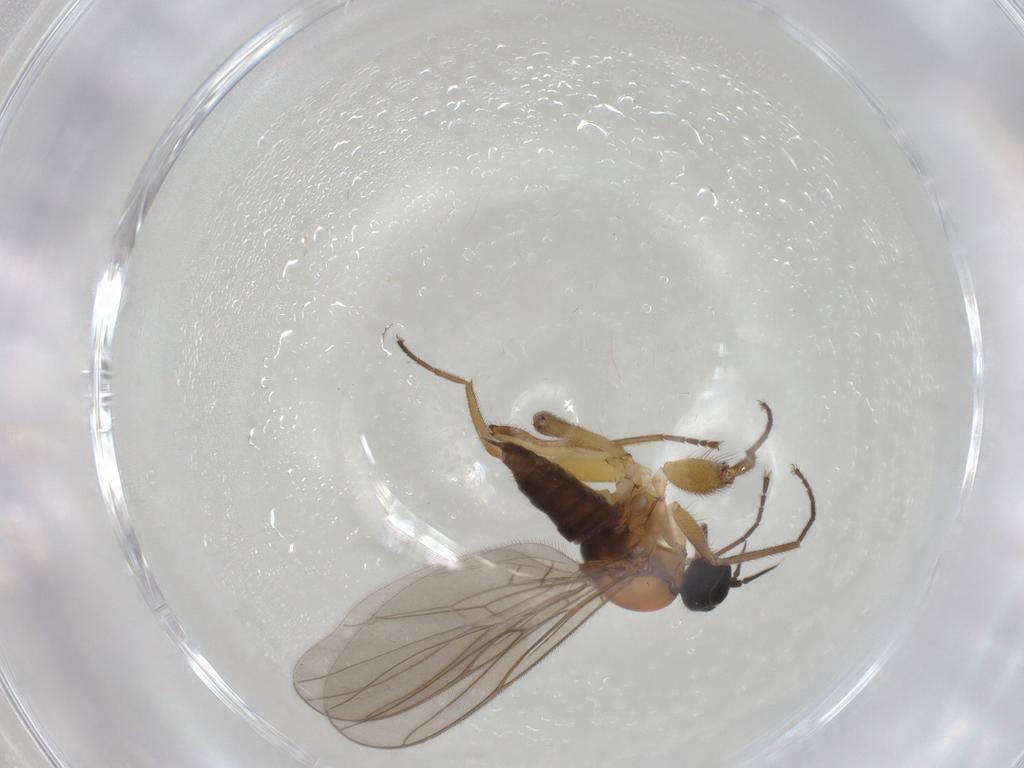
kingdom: Animalia
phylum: Arthropoda
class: Insecta
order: Diptera
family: Hybotidae
